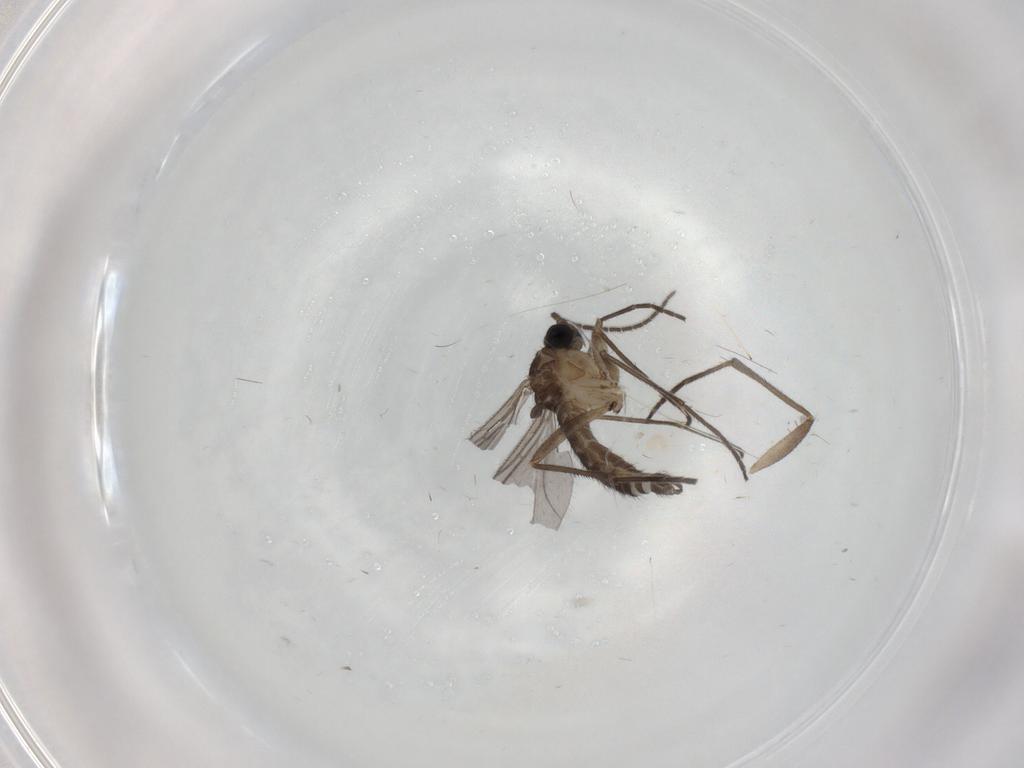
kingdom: Animalia
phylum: Arthropoda
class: Insecta
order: Diptera
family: Sciaridae
